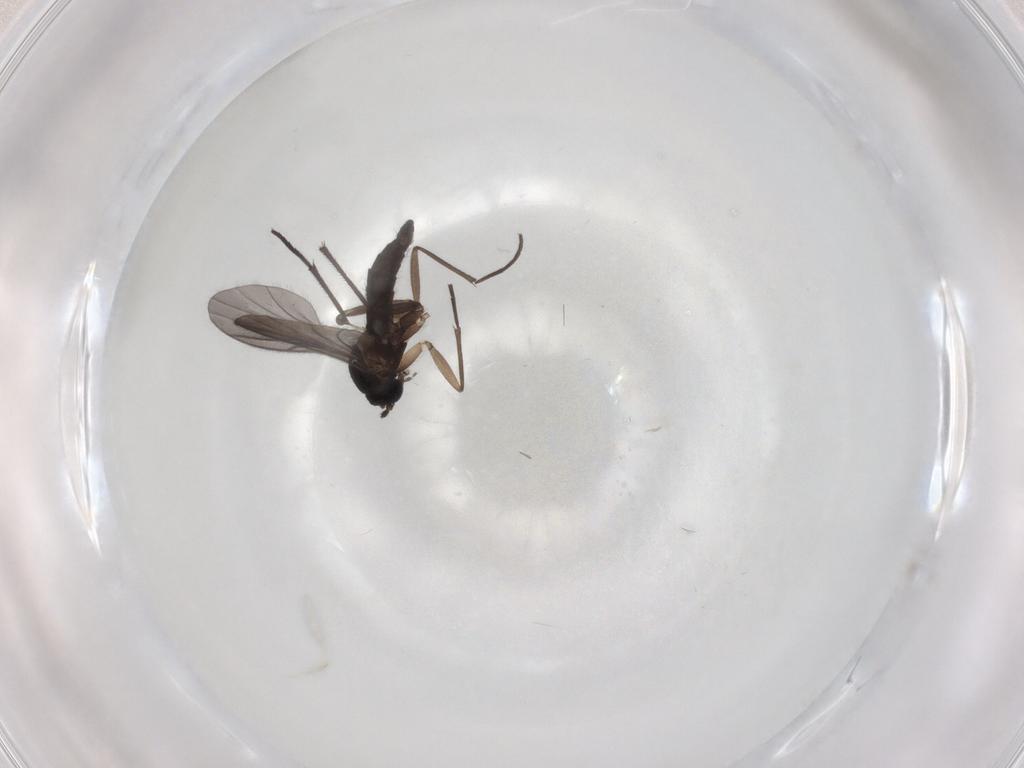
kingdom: Animalia
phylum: Arthropoda
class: Insecta
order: Diptera
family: Sciaridae
